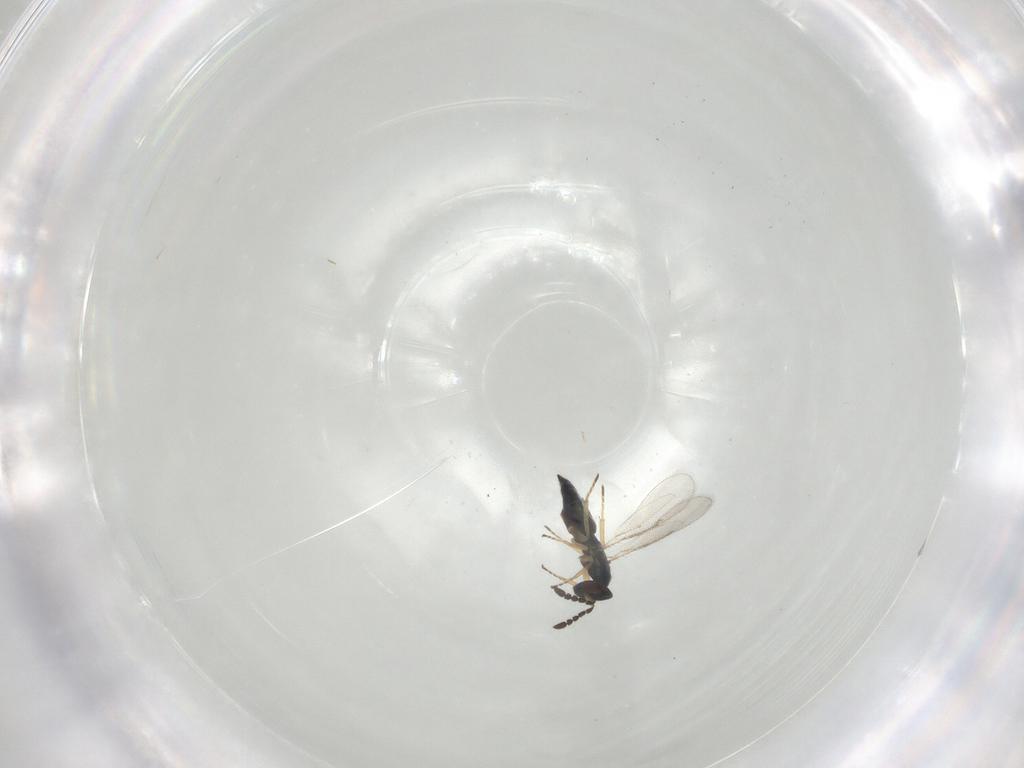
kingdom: Animalia
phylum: Arthropoda
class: Insecta
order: Hymenoptera
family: Eulophidae
